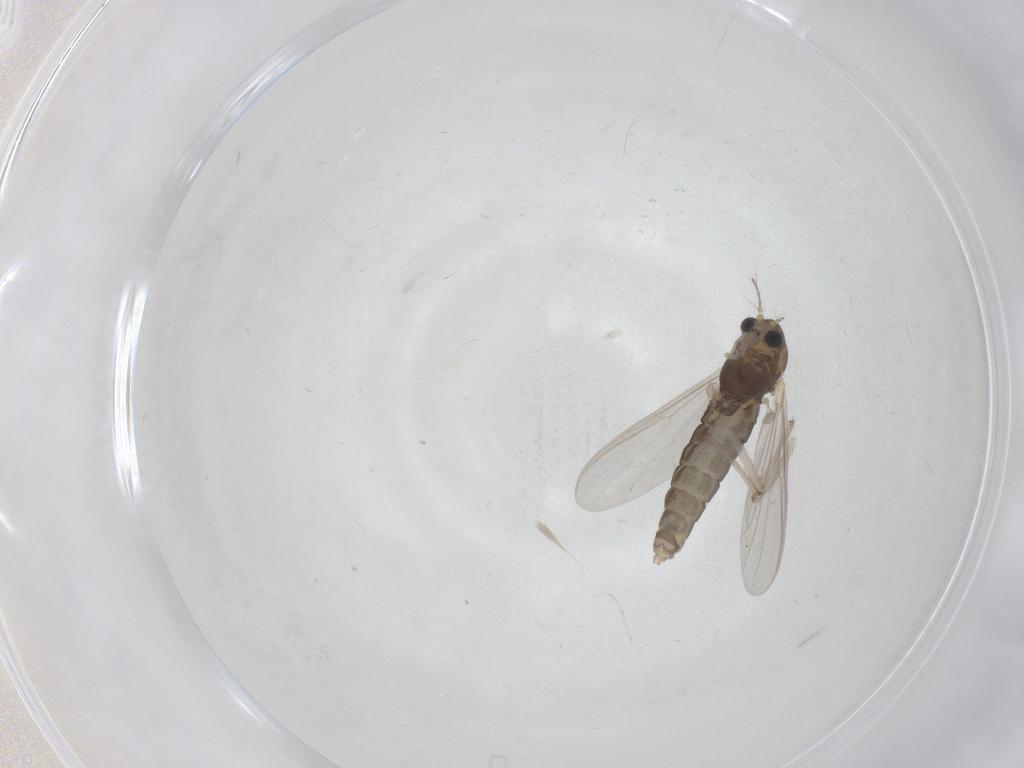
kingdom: Animalia
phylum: Arthropoda
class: Insecta
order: Diptera
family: Chironomidae
